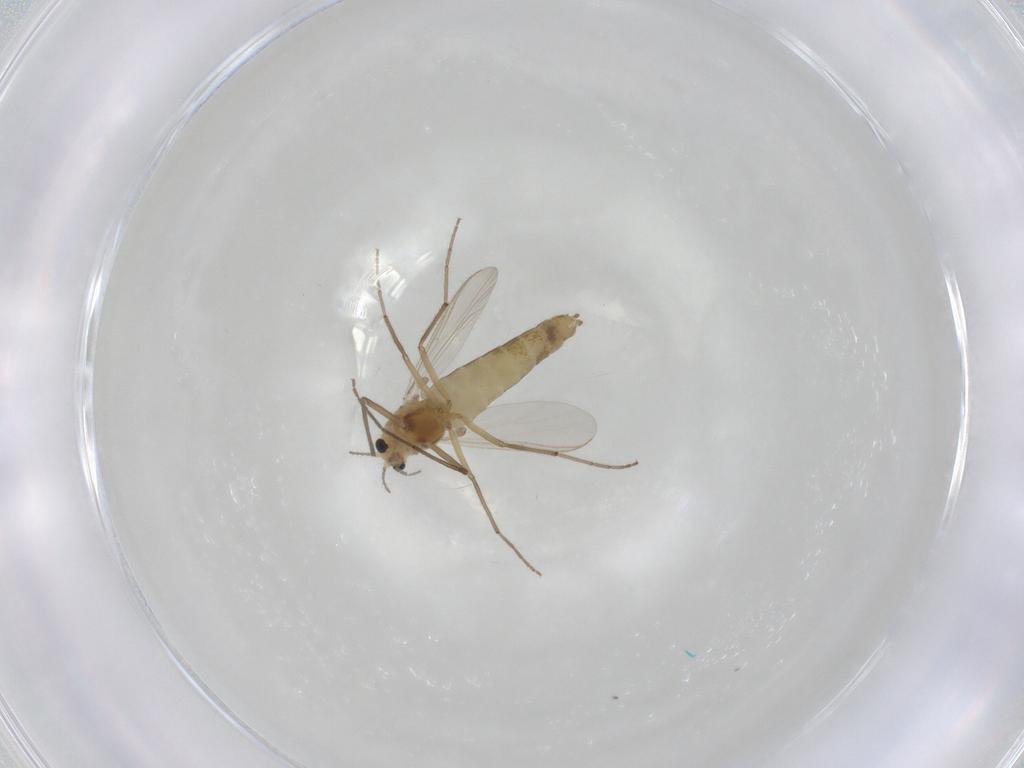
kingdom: Animalia
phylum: Arthropoda
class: Insecta
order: Diptera
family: Chironomidae
